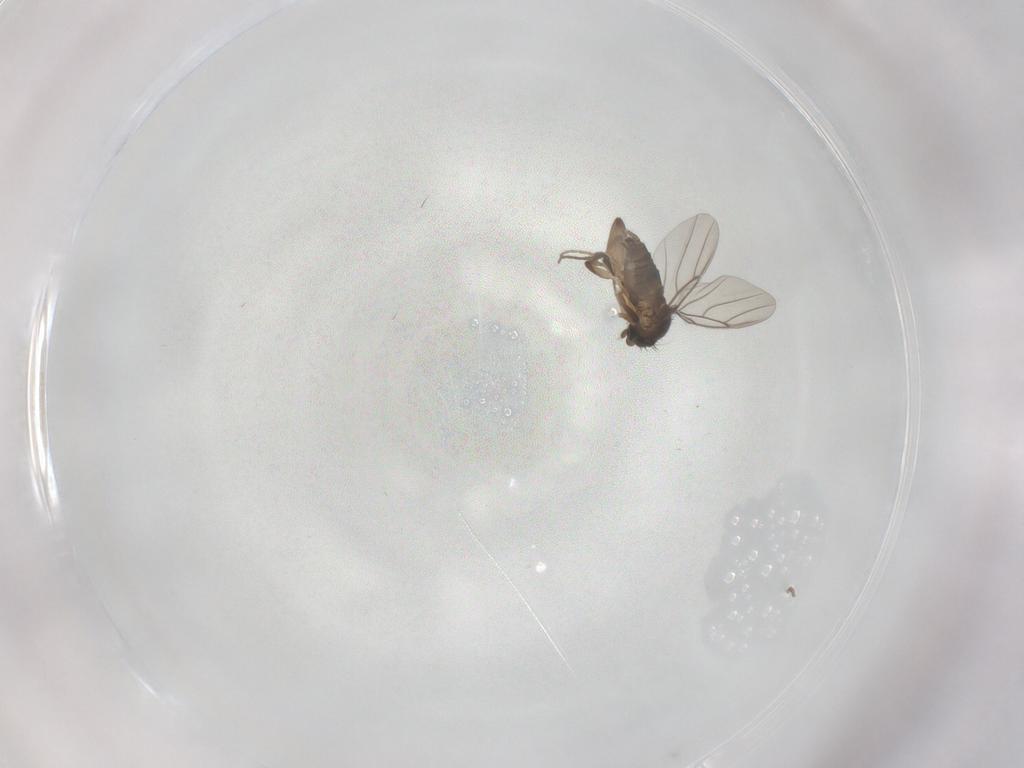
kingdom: Animalia
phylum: Arthropoda
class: Insecta
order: Diptera
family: Phoridae
